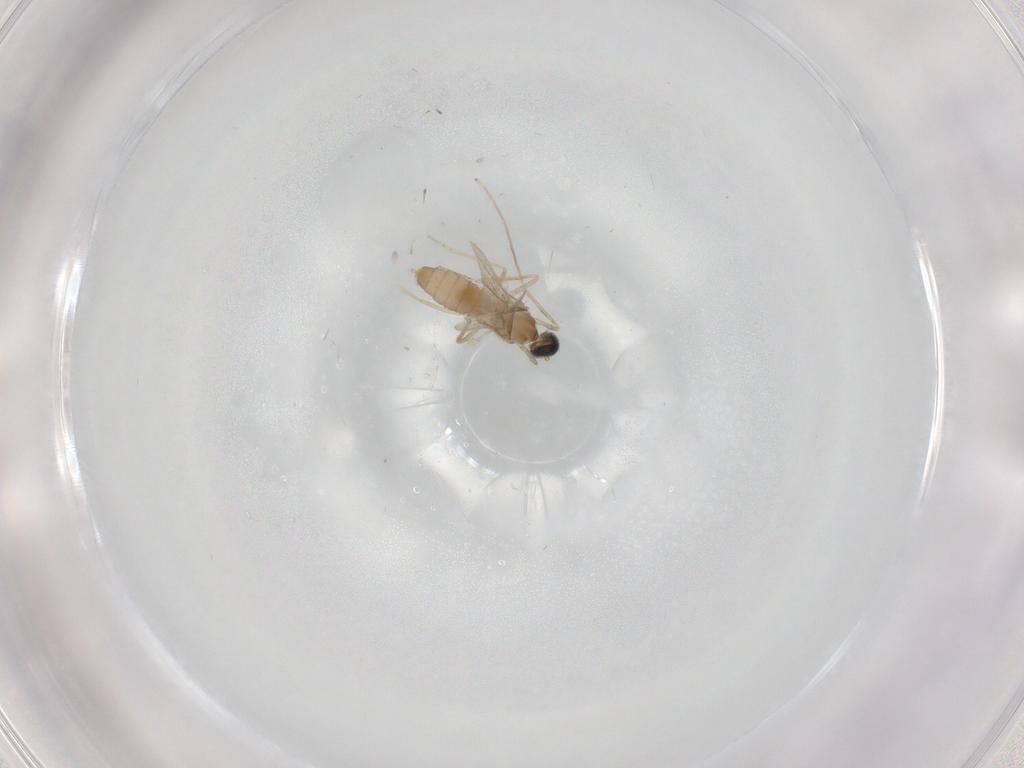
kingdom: Animalia
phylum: Arthropoda
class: Insecta
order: Diptera
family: Cecidomyiidae
